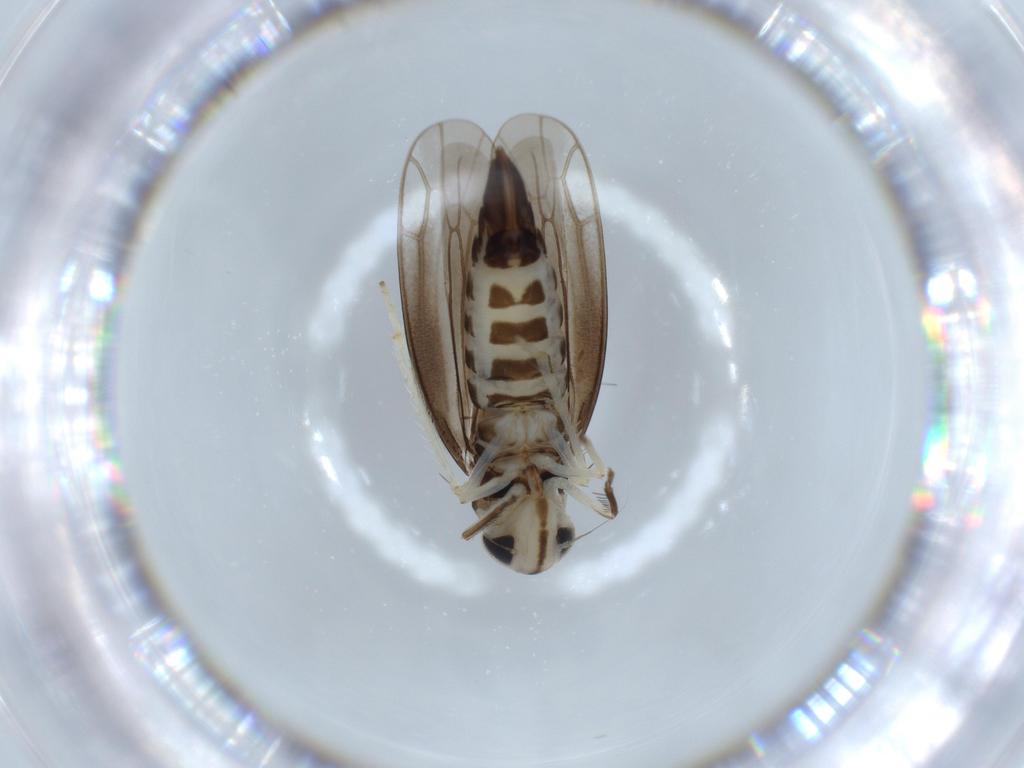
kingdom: Animalia
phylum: Arthropoda
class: Insecta
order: Hemiptera
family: Cicadellidae
